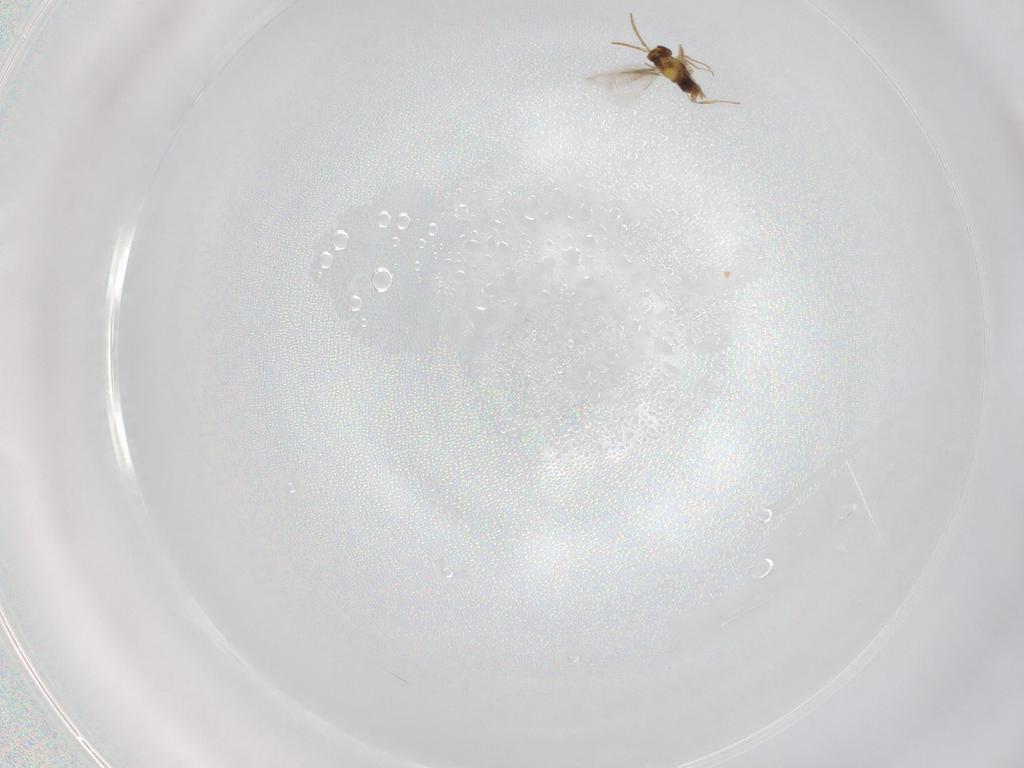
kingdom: Animalia
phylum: Arthropoda
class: Insecta
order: Hymenoptera
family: Aphelinidae
